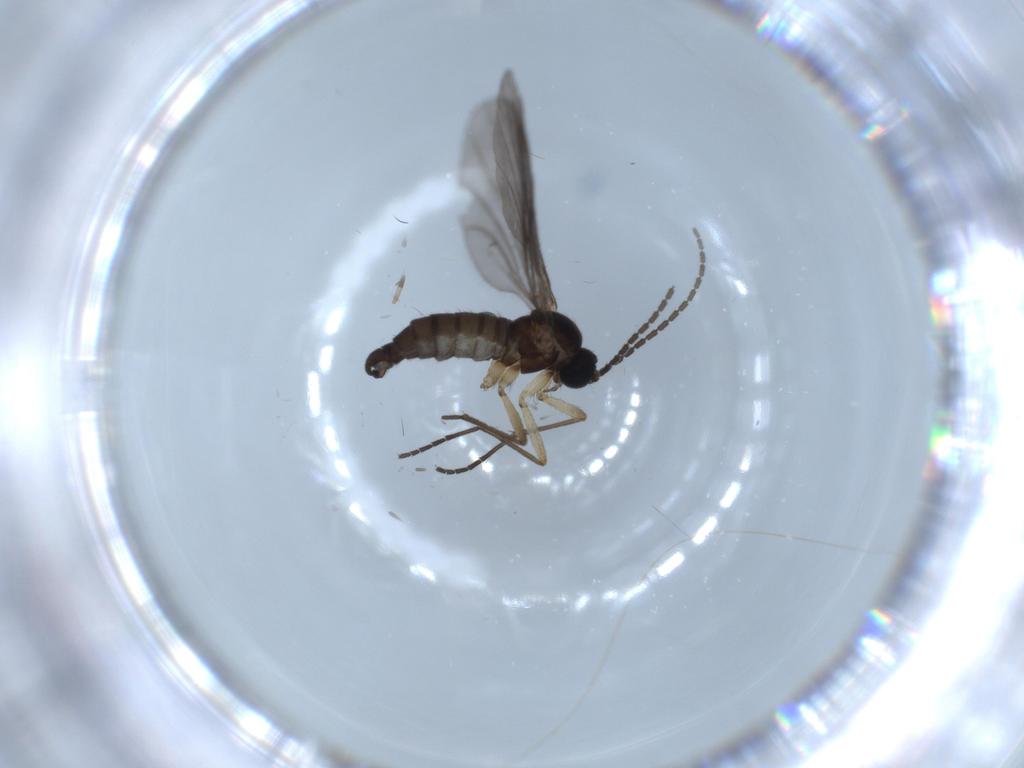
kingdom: Animalia
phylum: Arthropoda
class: Insecta
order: Diptera
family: Sciaridae
